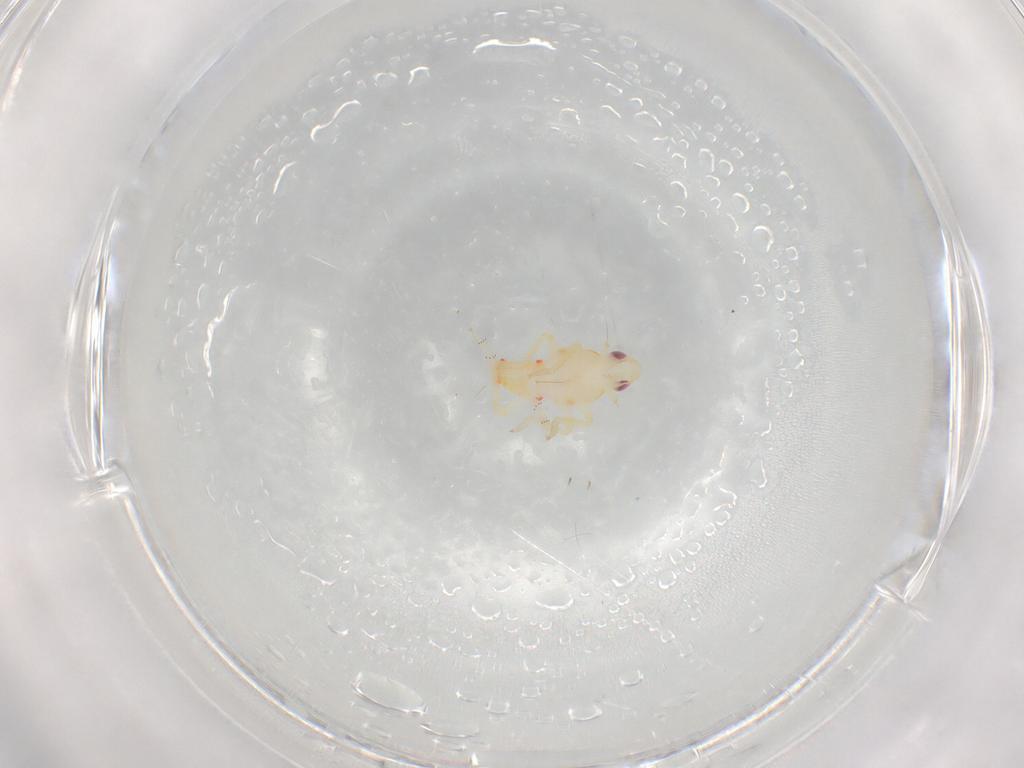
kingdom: Animalia
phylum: Arthropoda
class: Insecta
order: Hemiptera
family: Tropiduchidae
